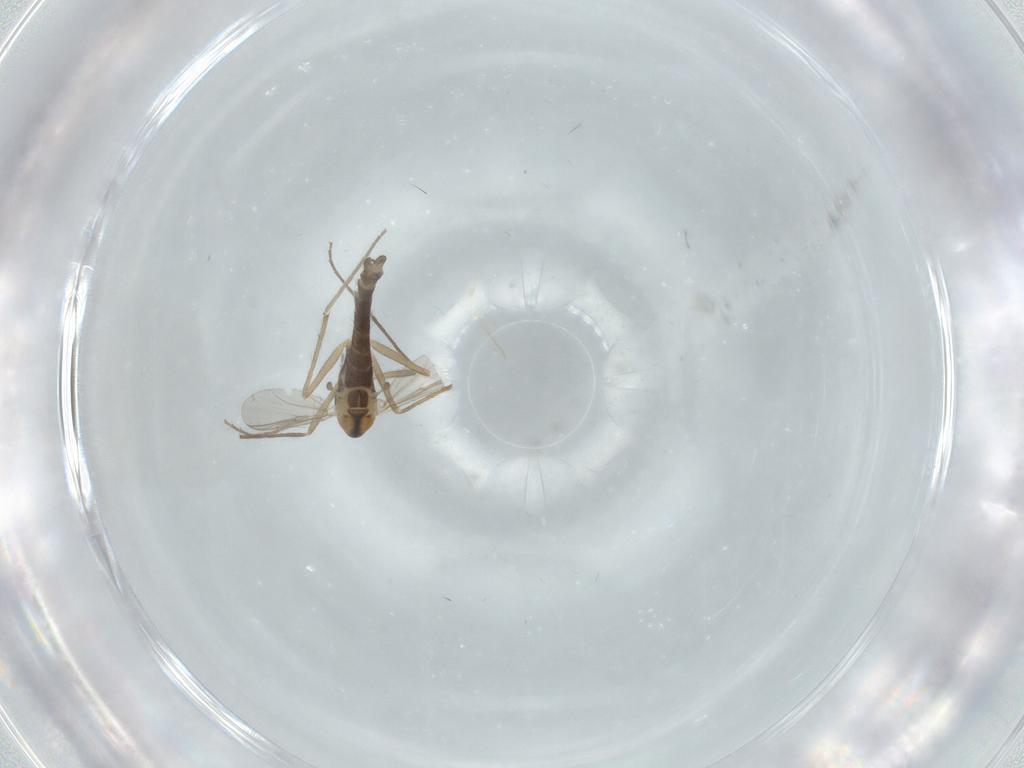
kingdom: Animalia
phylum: Arthropoda
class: Insecta
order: Diptera
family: Chironomidae
